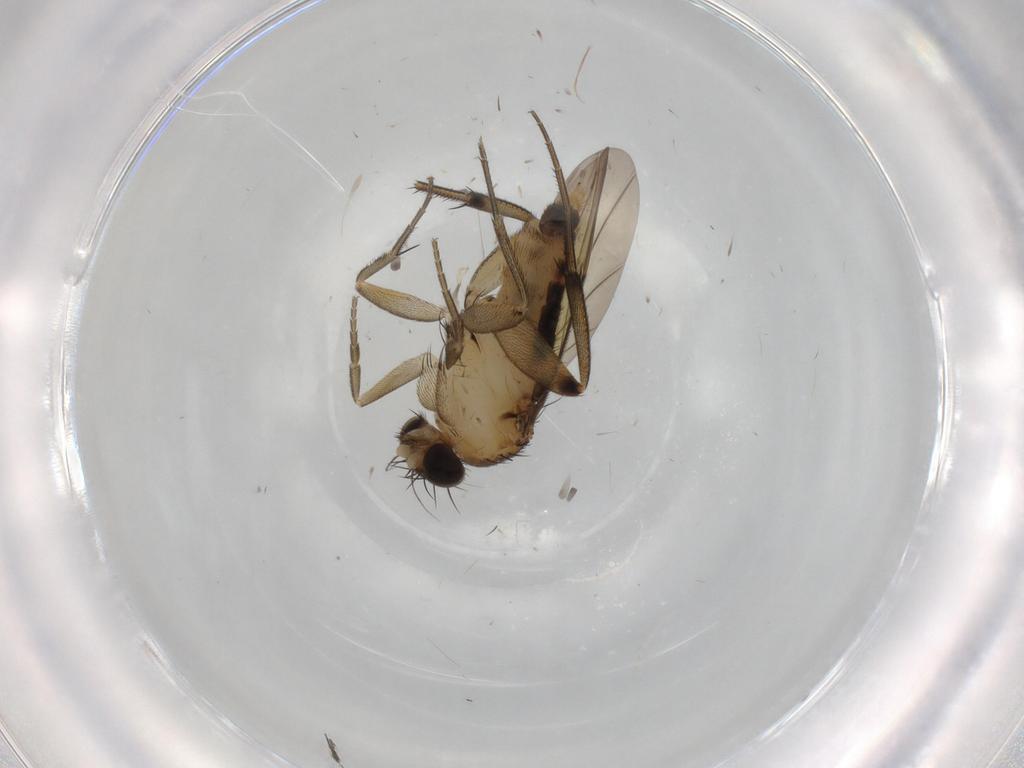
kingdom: Animalia
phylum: Arthropoda
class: Insecta
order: Diptera
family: Phoridae
